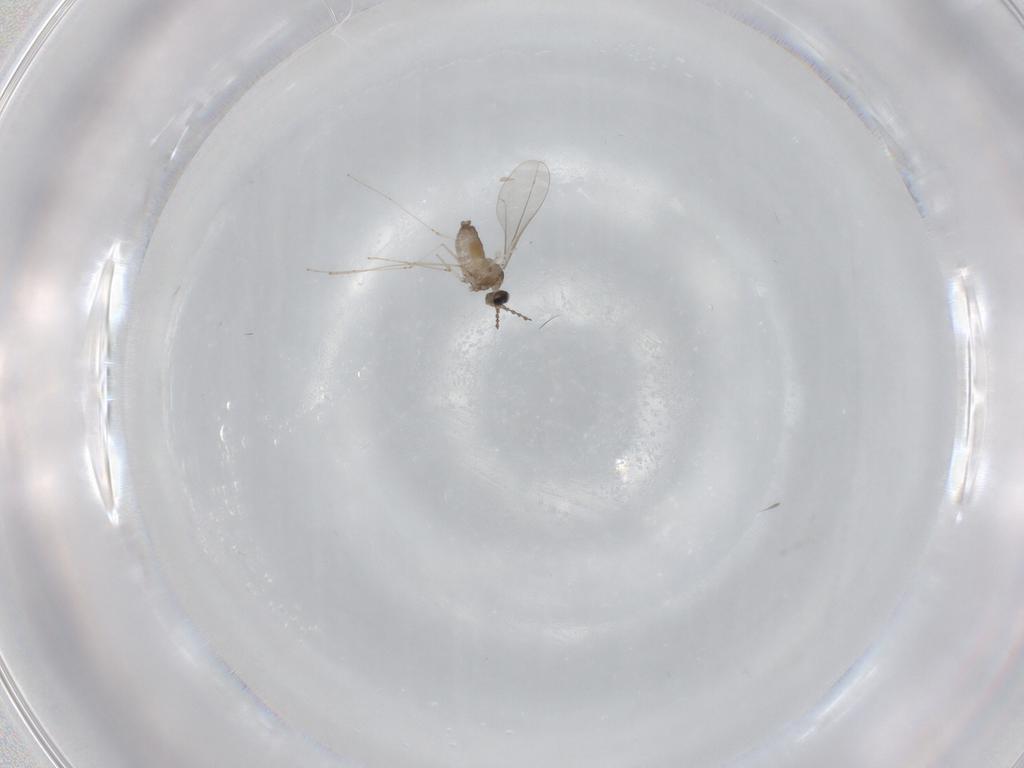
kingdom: Animalia
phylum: Arthropoda
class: Insecta
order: Diptera
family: Cecidomyiidae
